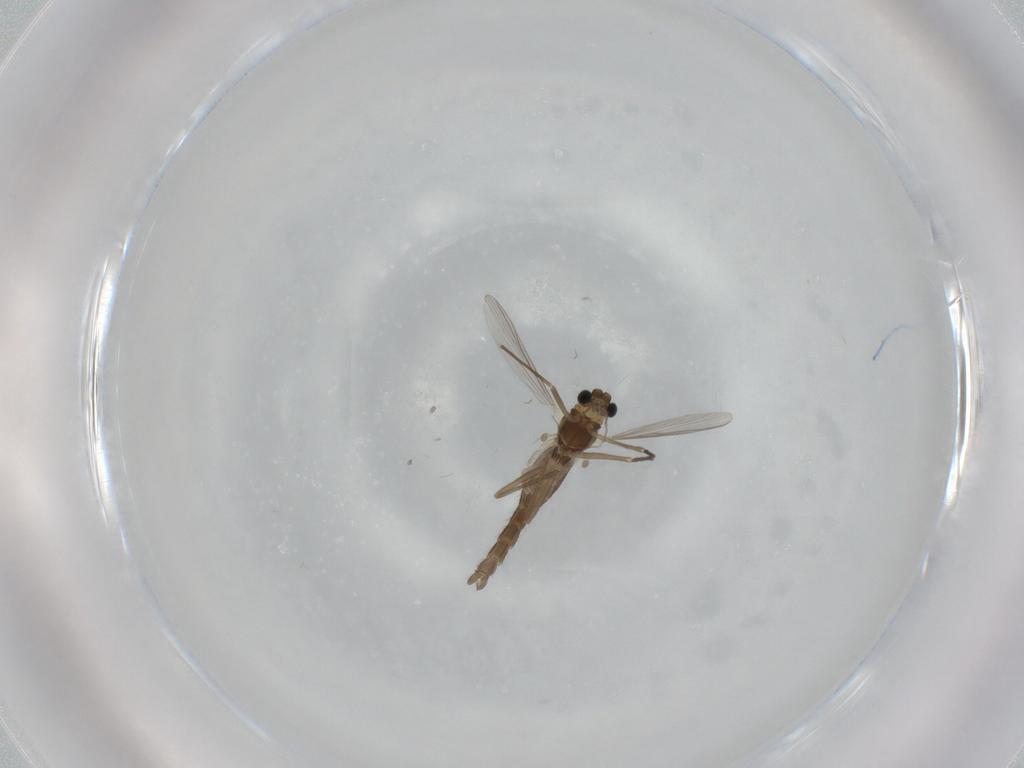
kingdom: Animalia
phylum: Arthropoda
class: Insecta
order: Diptera
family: Chironomidae
